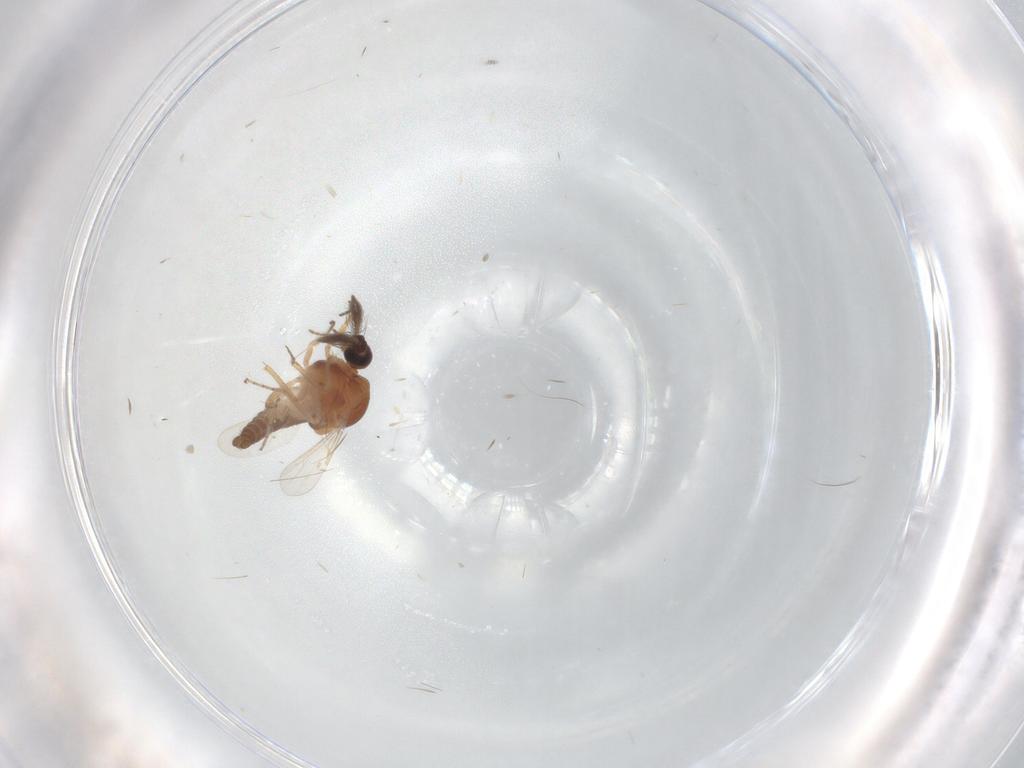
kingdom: Animalia
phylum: Arthropoda
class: Insecta
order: Diptera
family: Ceratopogonidae
